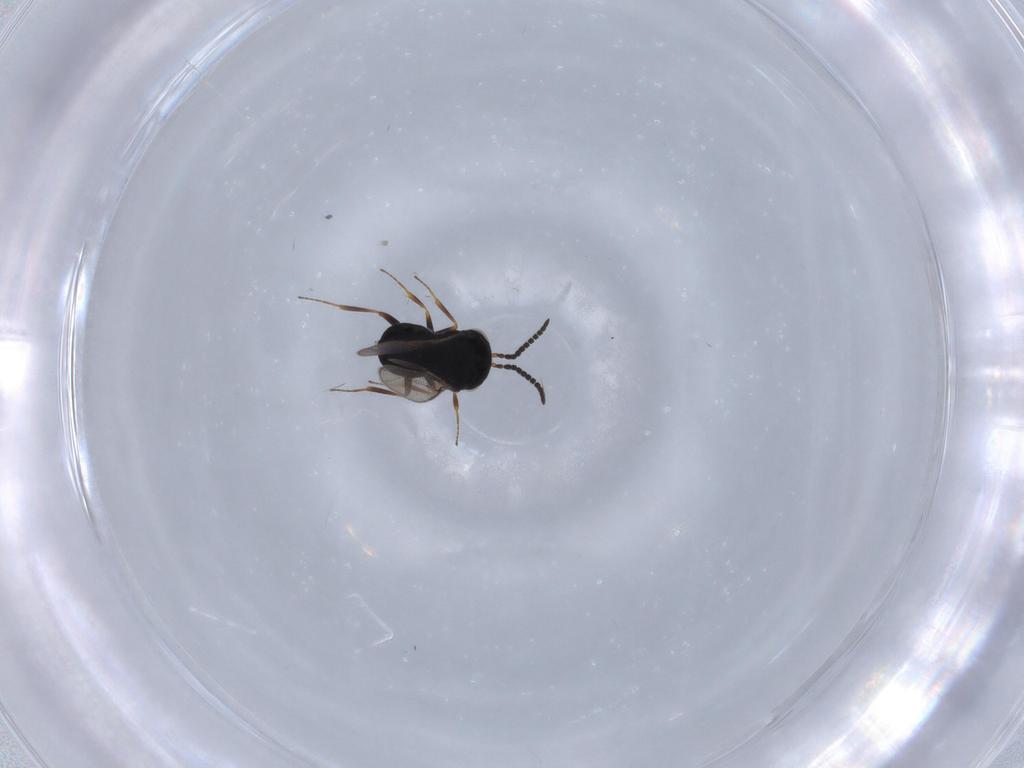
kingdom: Animalia
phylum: Arthropoda
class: Insecta
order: Hymenoptera
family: Scelionidae
